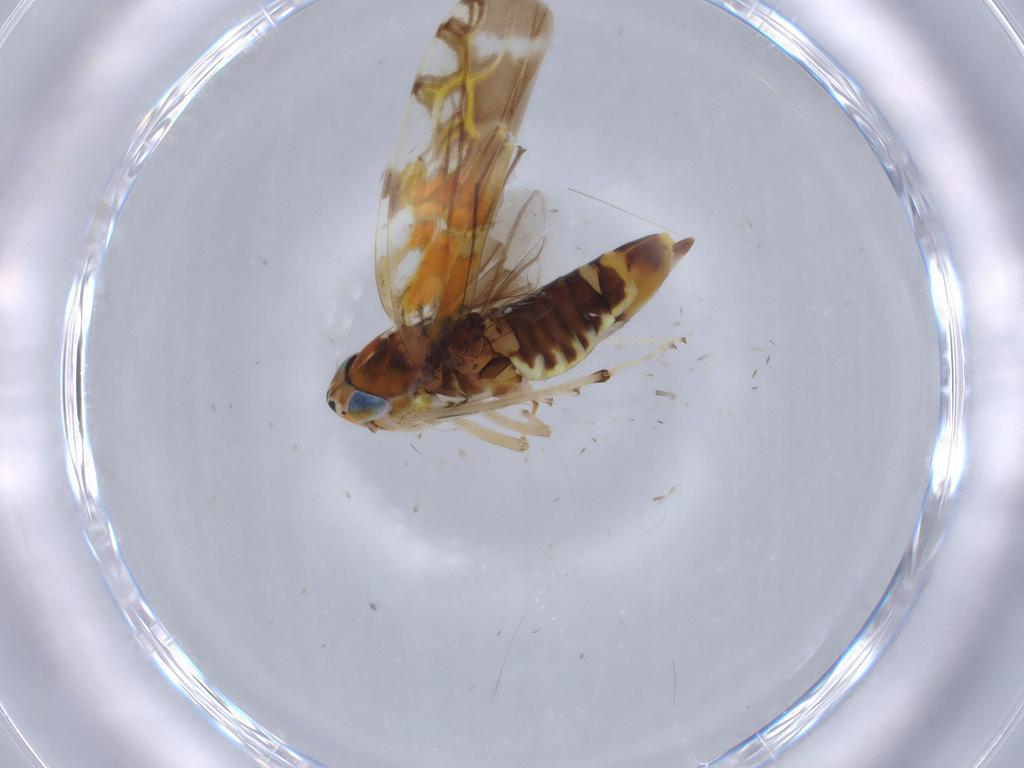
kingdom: Animalia
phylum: Arthropoda
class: Insecta
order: Hemiptera
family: Cicadellidae
